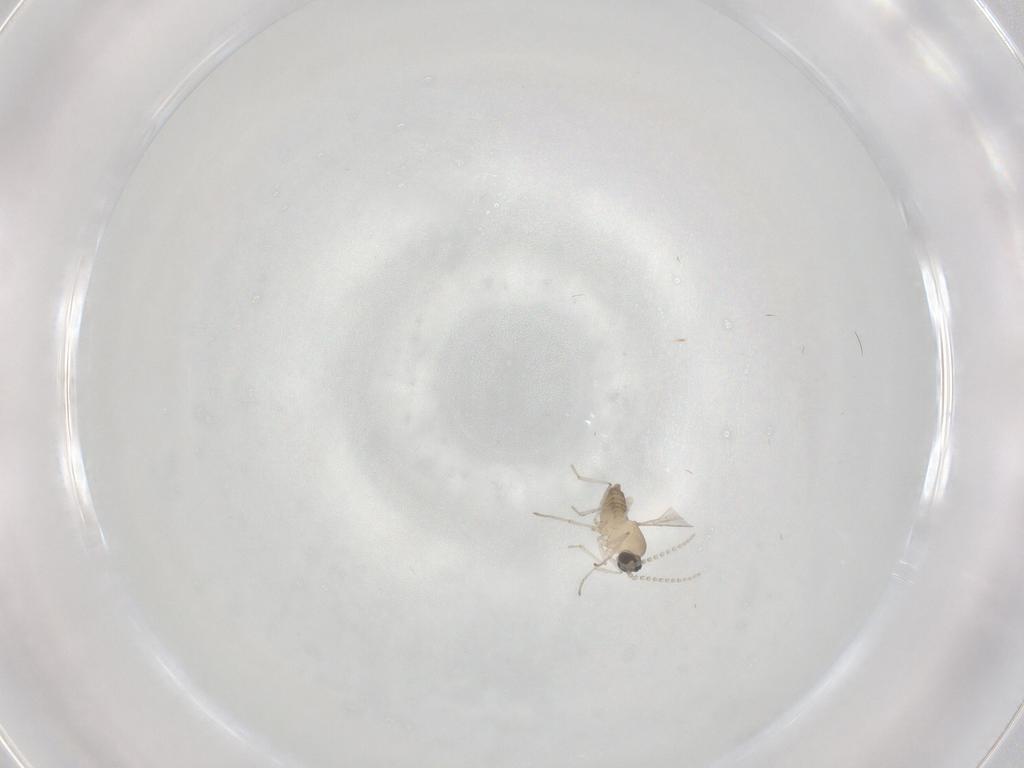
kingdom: Animalia
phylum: Arthropoda
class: Insecta
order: Diptera
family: Cecidomyiidae
